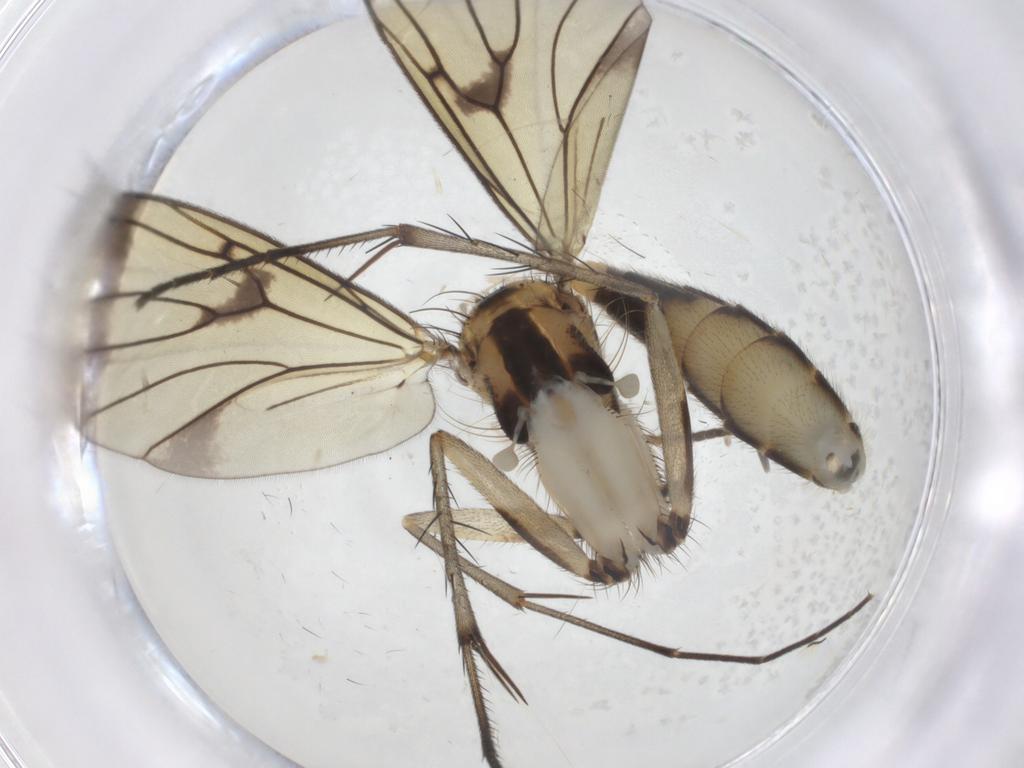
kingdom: Animalia
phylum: Arthropoda
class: Insecta
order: Diptera
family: Mycetophilidae
